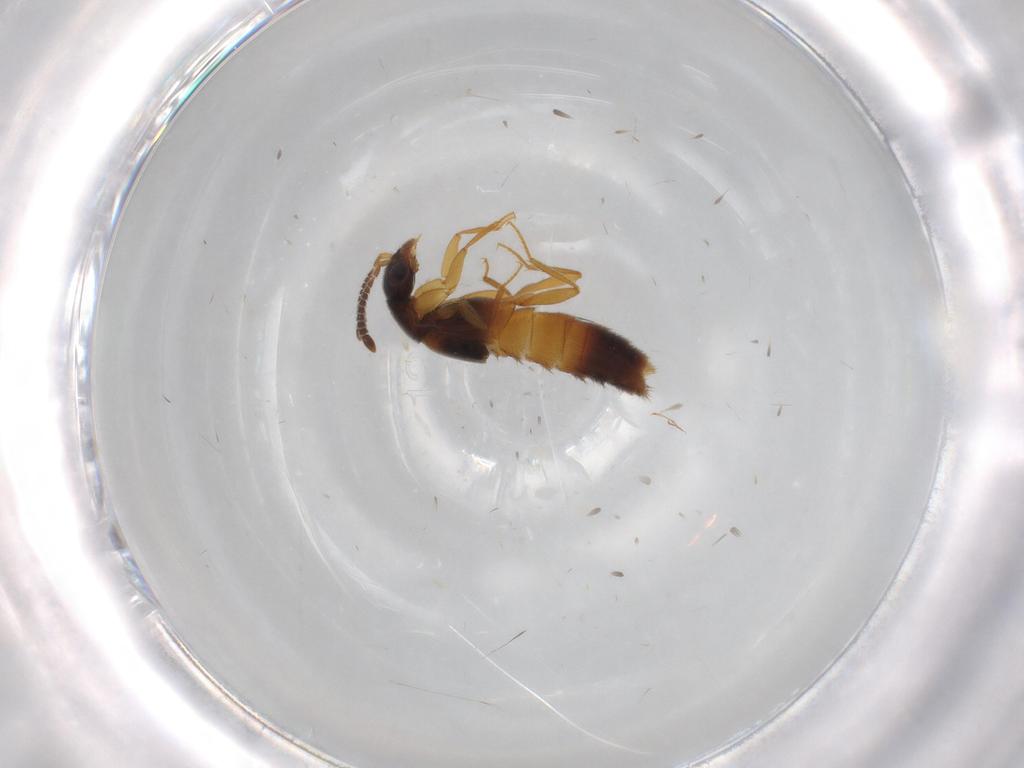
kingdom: Animalia
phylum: Arthropoda
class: Insecta
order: Coleoptera
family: Staphylinidae
